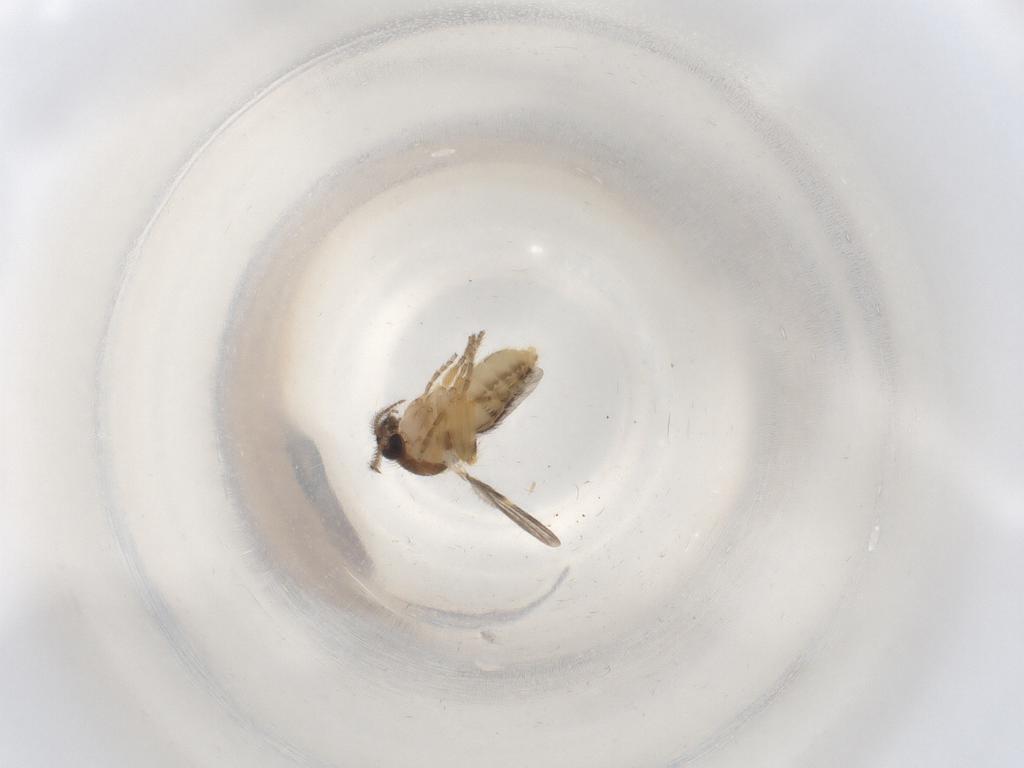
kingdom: Animalia
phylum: Arthropoda
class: Insecta
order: Diptera
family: Ceratopogonidae
